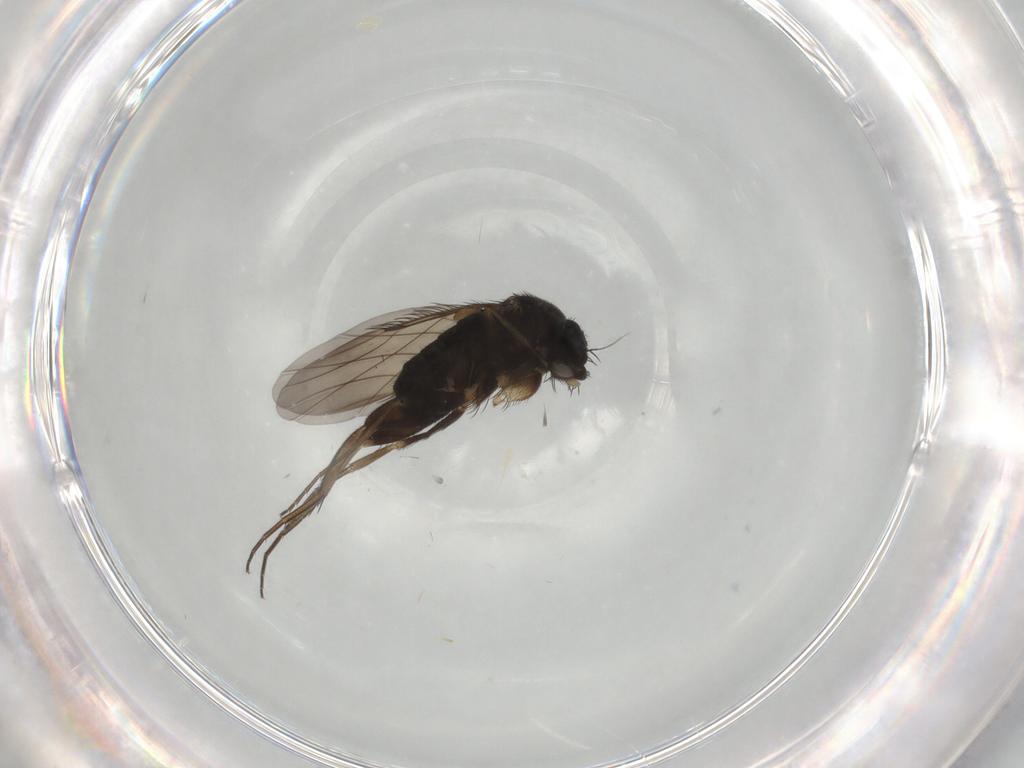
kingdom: Animalia
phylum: Arthropoda
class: Insecta
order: Diptera
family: Phoridae
